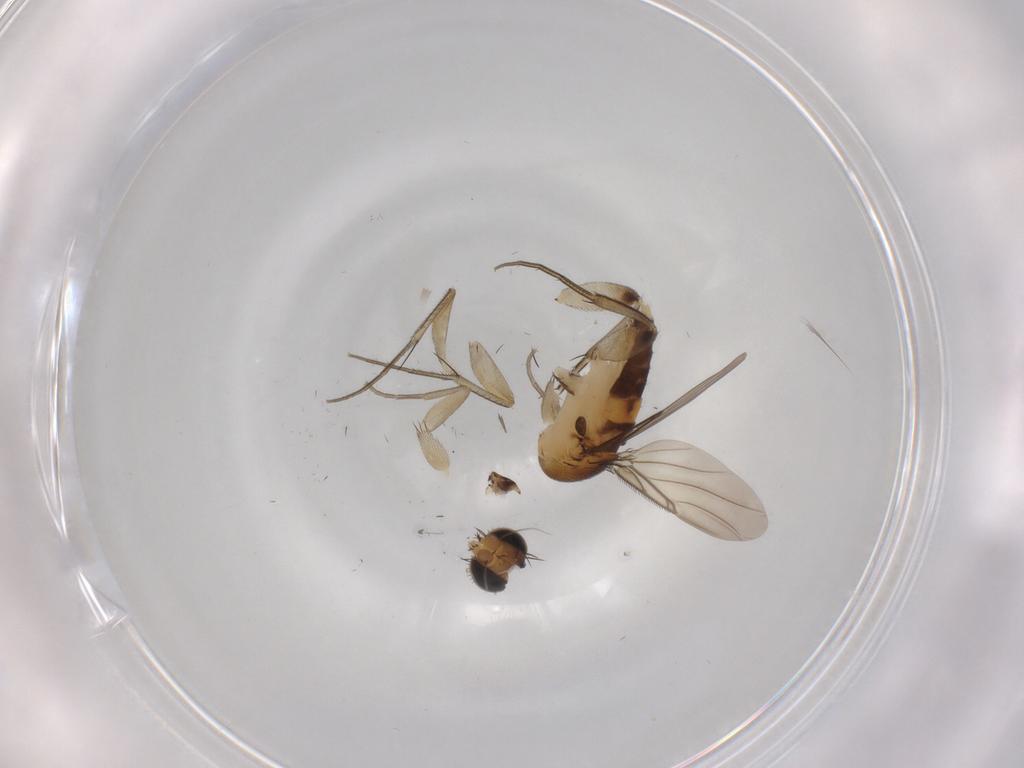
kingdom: Animalia
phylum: Arthropoda
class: Insecta
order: Diptera
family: Phoridae
